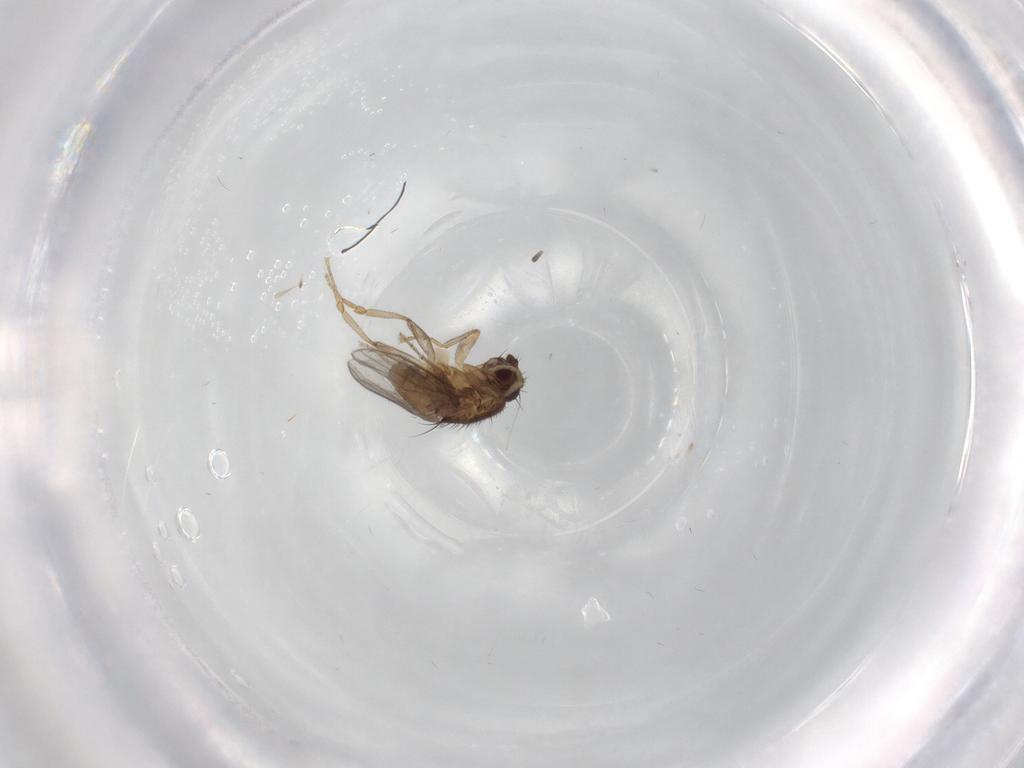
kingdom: Animalia
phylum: Arthropoda
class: Insecta
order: Diptera
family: Sphaeroceridae
